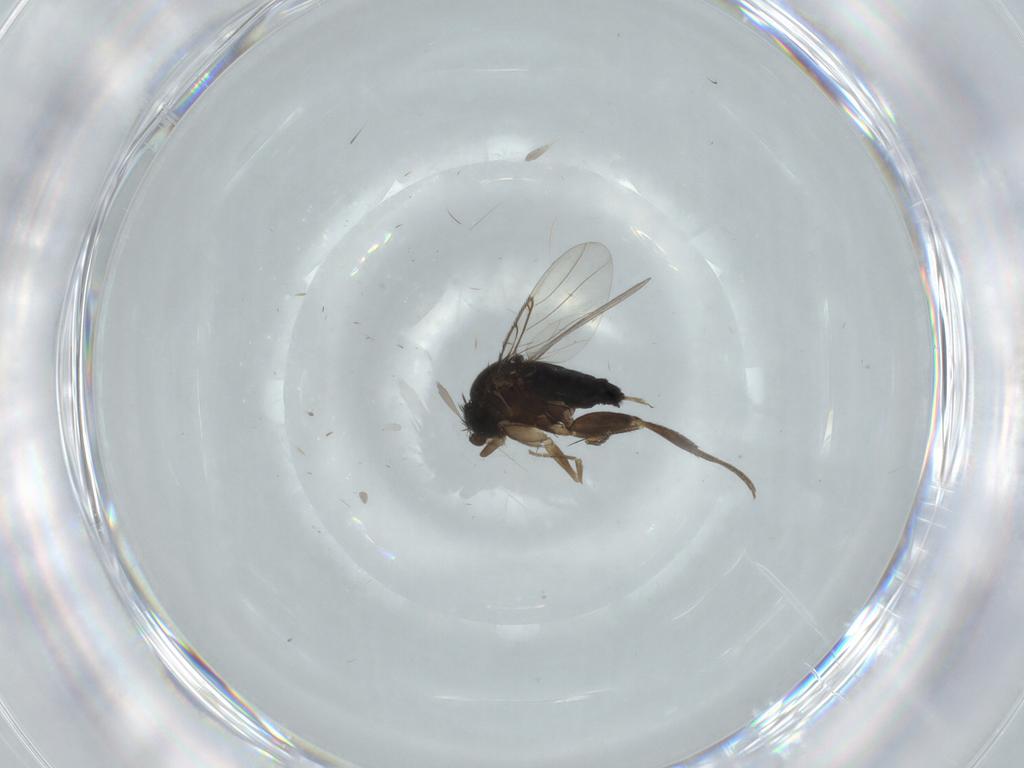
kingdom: Animalia
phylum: Arthropoda
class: Insecta
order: Diptera
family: Phoridae
